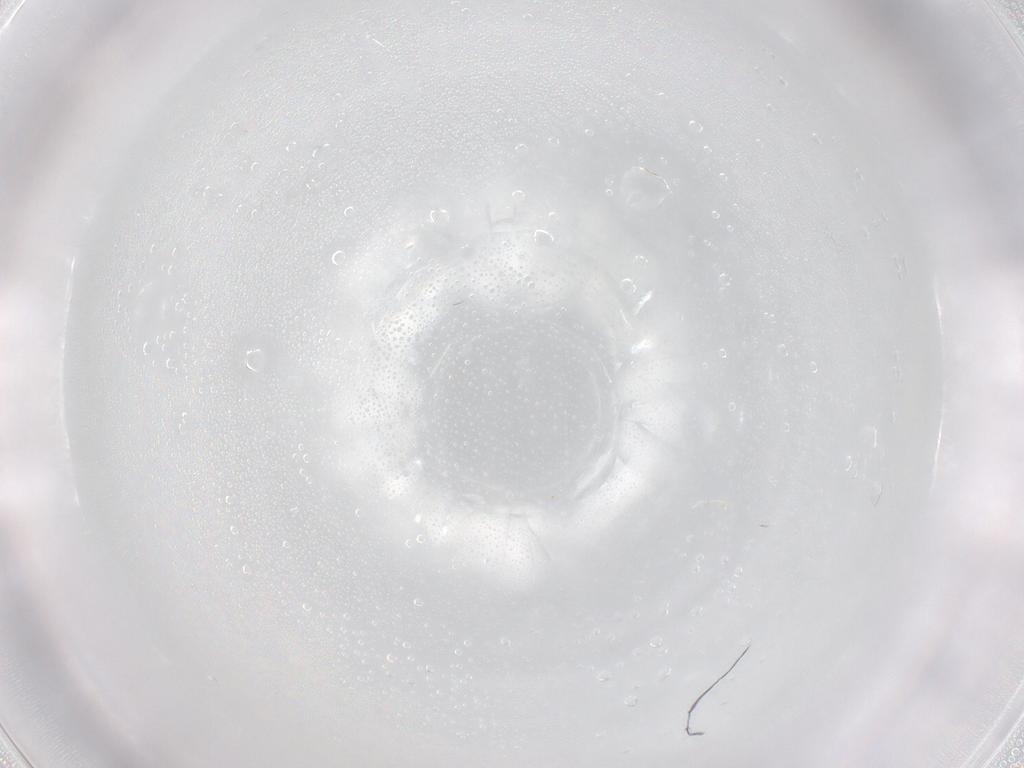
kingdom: Animalia
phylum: Arthropoda
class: Insecta
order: Diptera
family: Sciaridae
